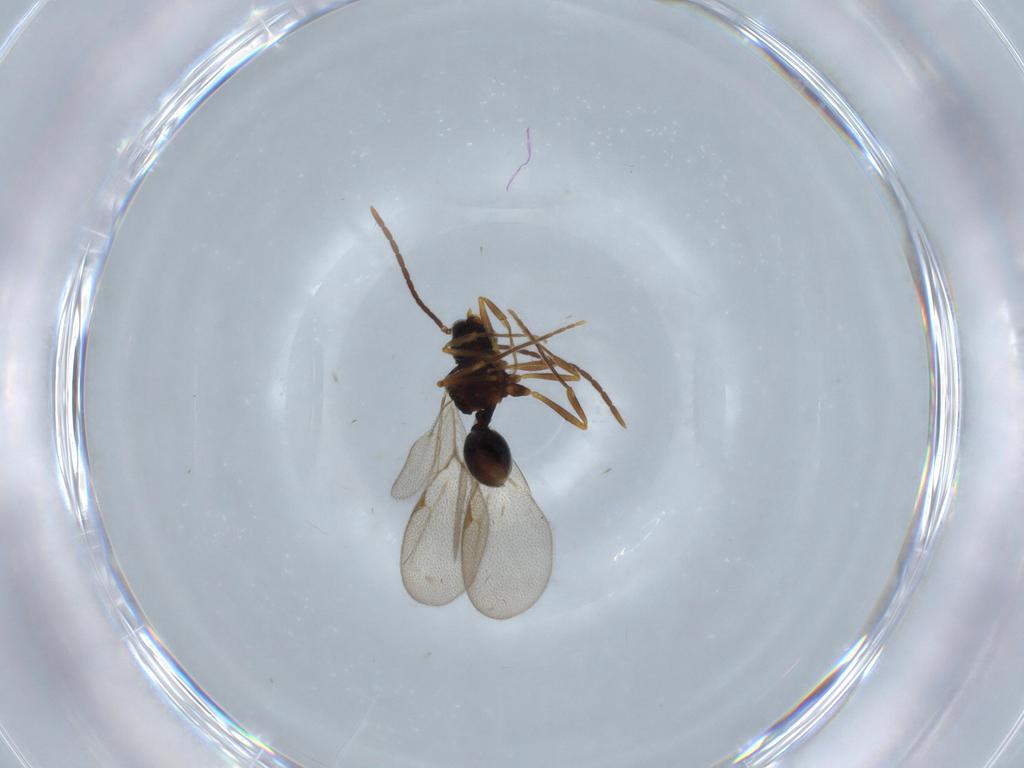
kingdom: Animalia
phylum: Arthropoda
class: Insecta
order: Hymenoptera
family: Formicidae
